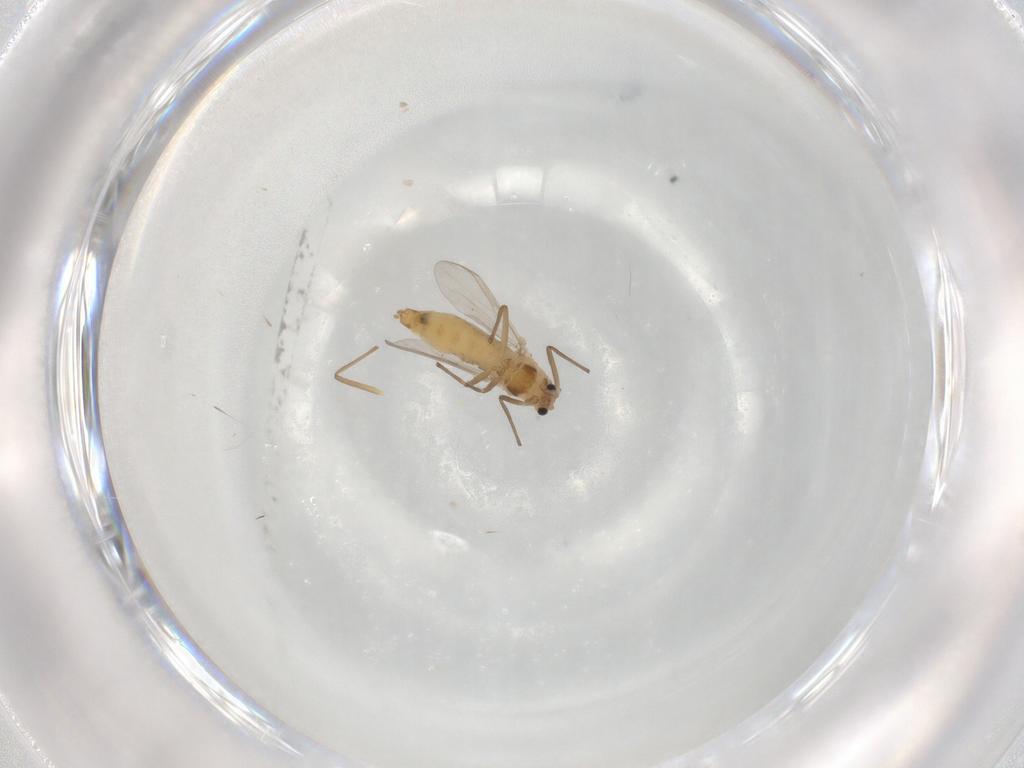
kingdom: Animalia
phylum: Arthropoda
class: Insecta
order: Diptera
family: Chironomidae
